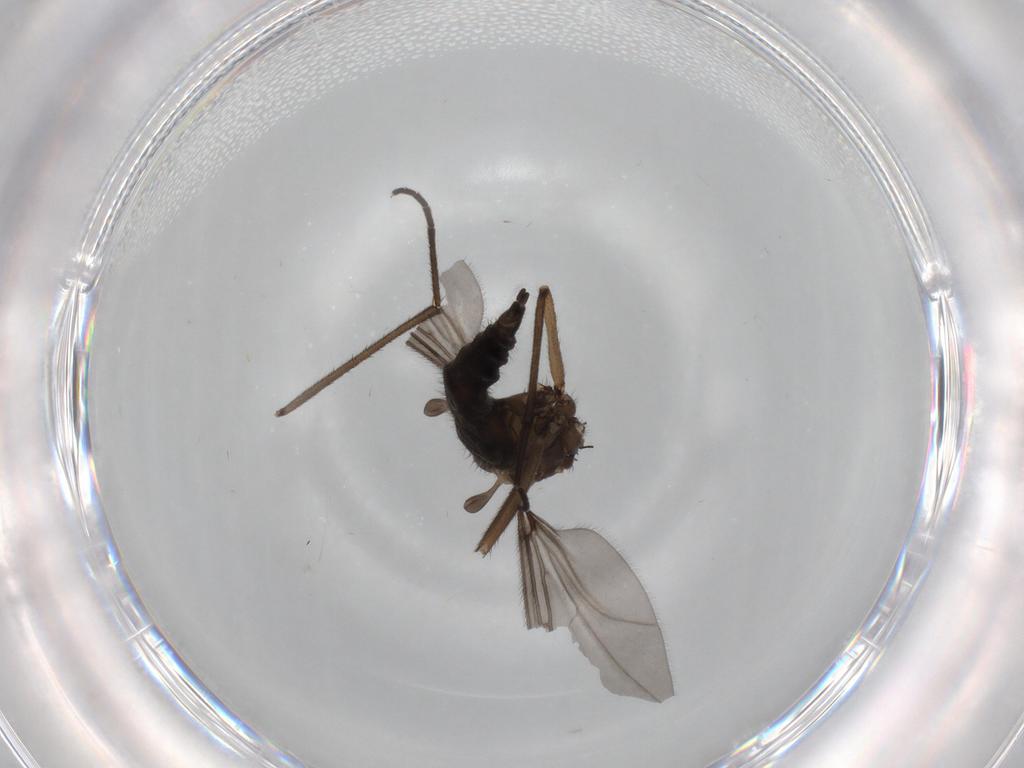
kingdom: Animalia
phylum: Arthropoda
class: Insecta
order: Diptera
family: Sciaridae
